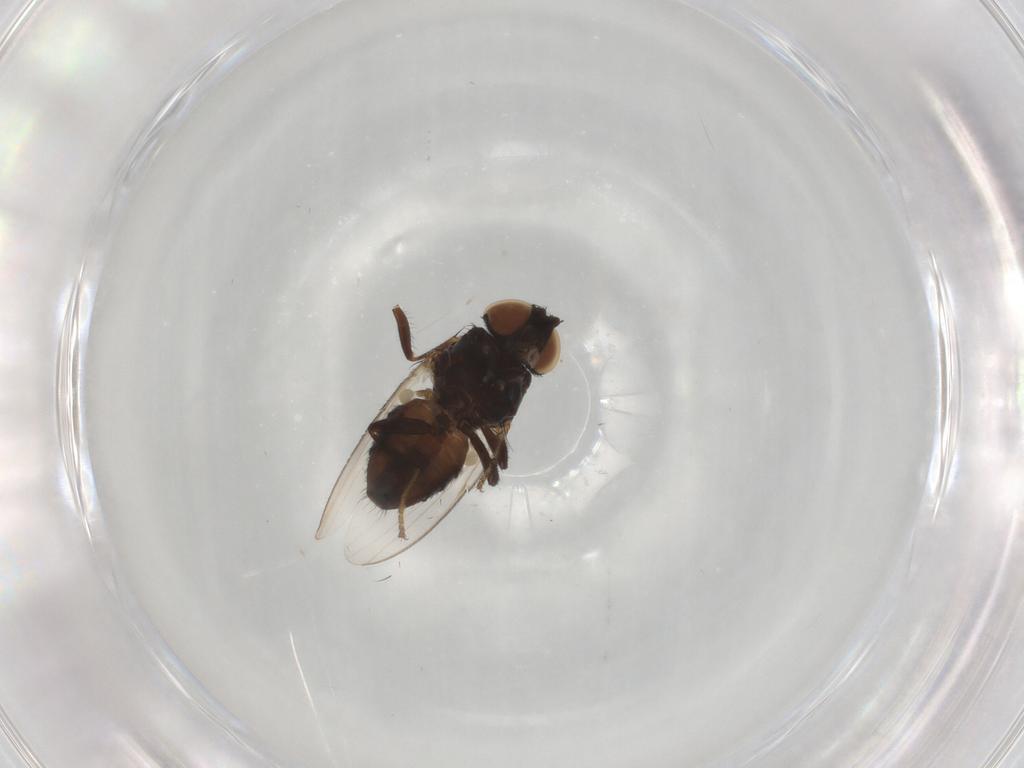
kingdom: Animalia
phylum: Arthropoda
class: Insecta
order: Diptera
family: Dolichopodidae
